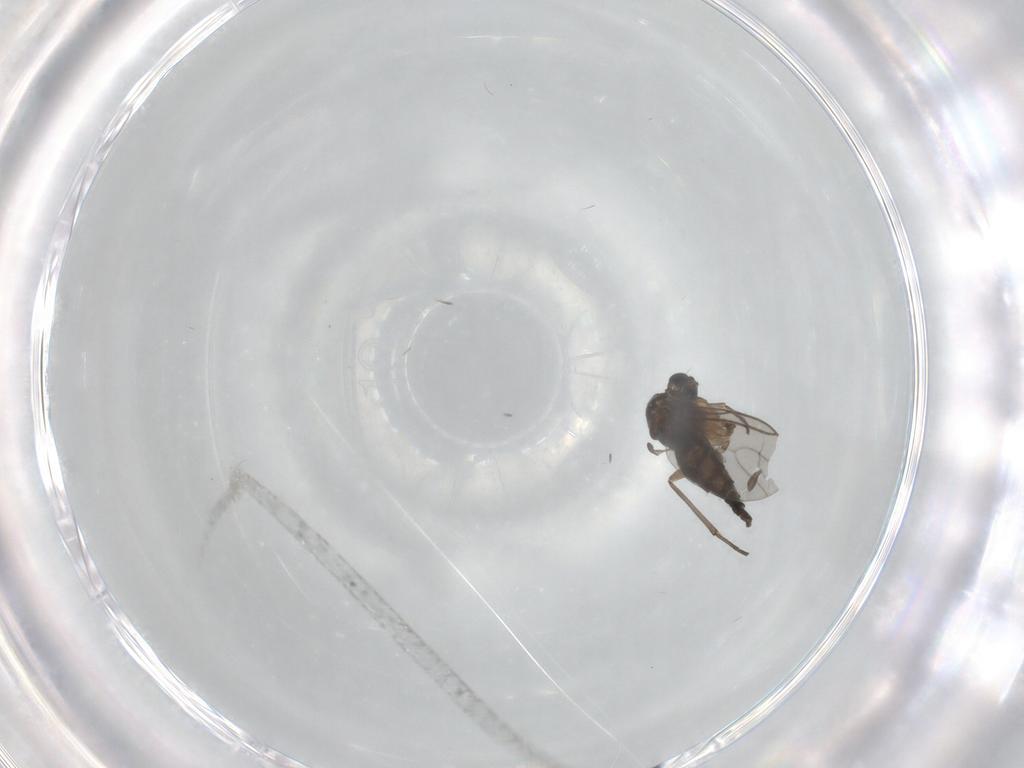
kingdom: Animalia
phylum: Arthropoda
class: Insecta
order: Diptera
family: Sciaridae
